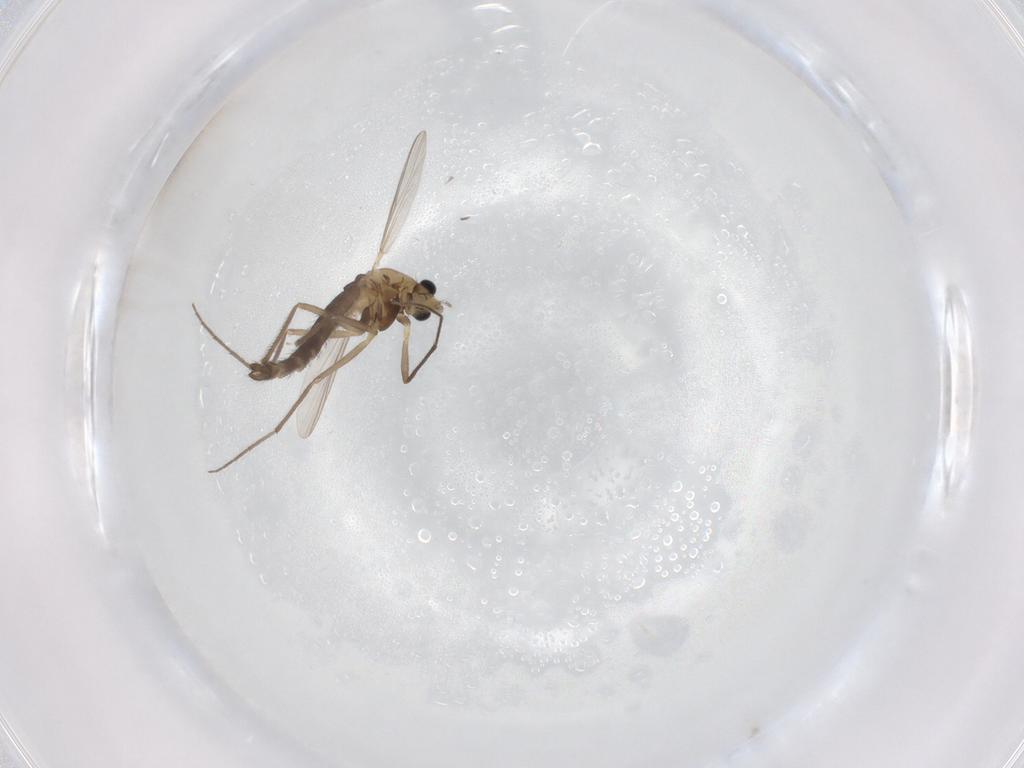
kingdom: Animalia
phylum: Arthropoda
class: Insecta
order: Diptera
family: Chironomidae
